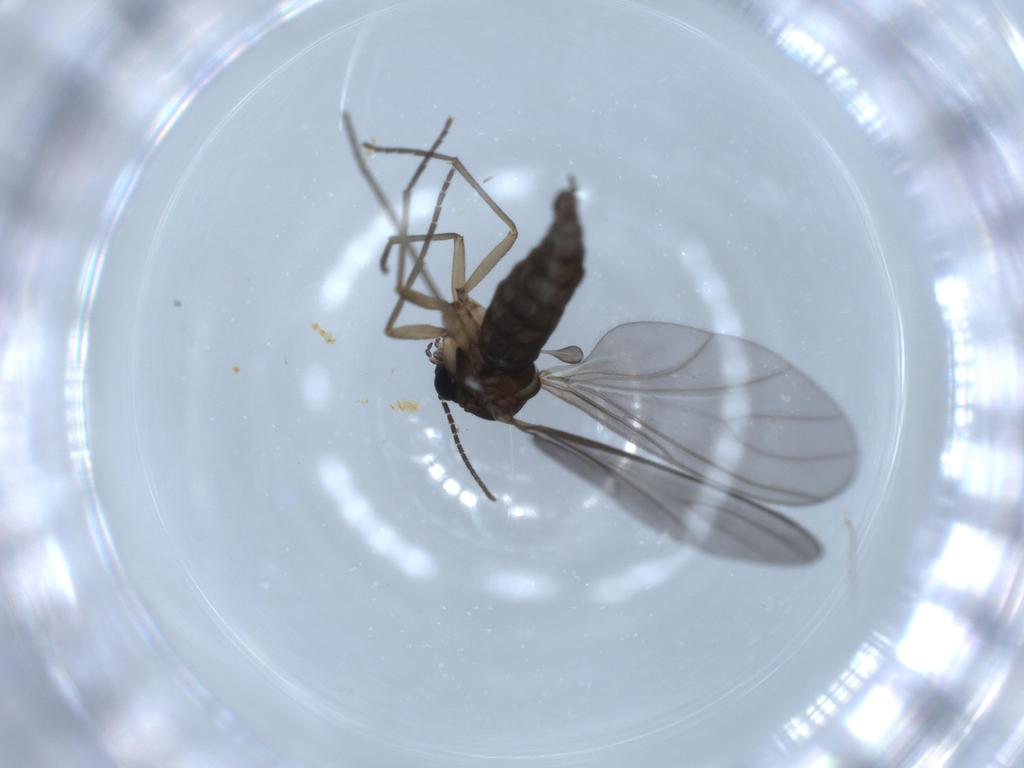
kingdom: Animalia
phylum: Arthropoda
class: Insecta
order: Diptera
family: Sciaridae
